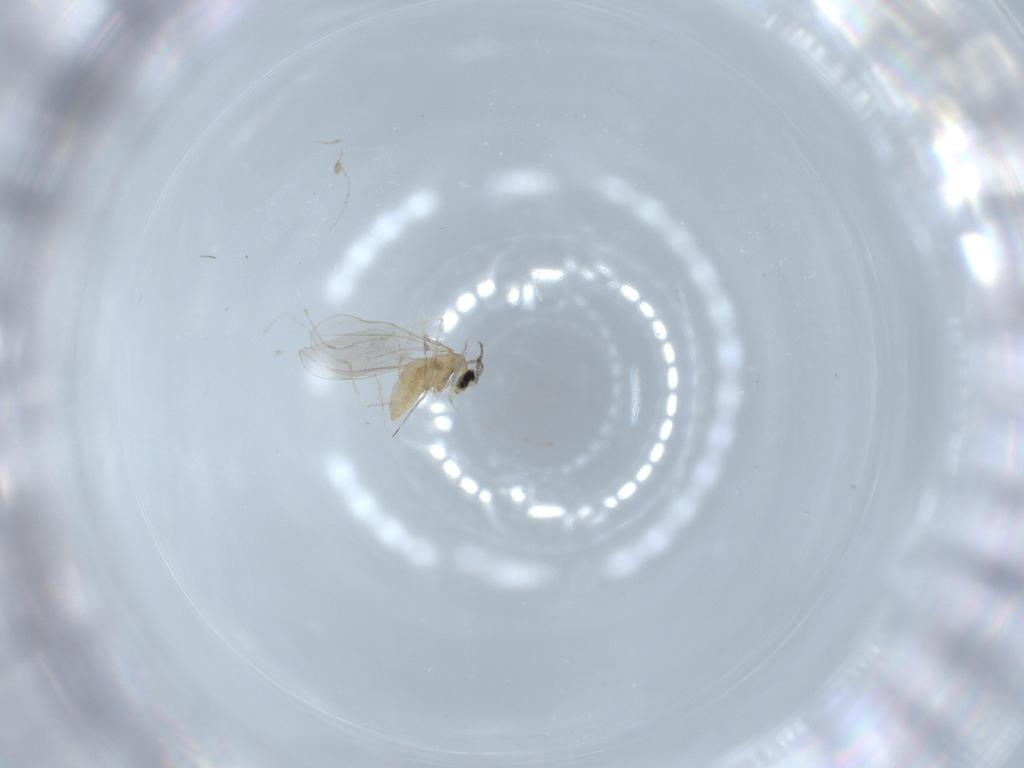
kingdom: Animalia
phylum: Arthropoda
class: Insecta
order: Diptera
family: Cecidomyiidae
